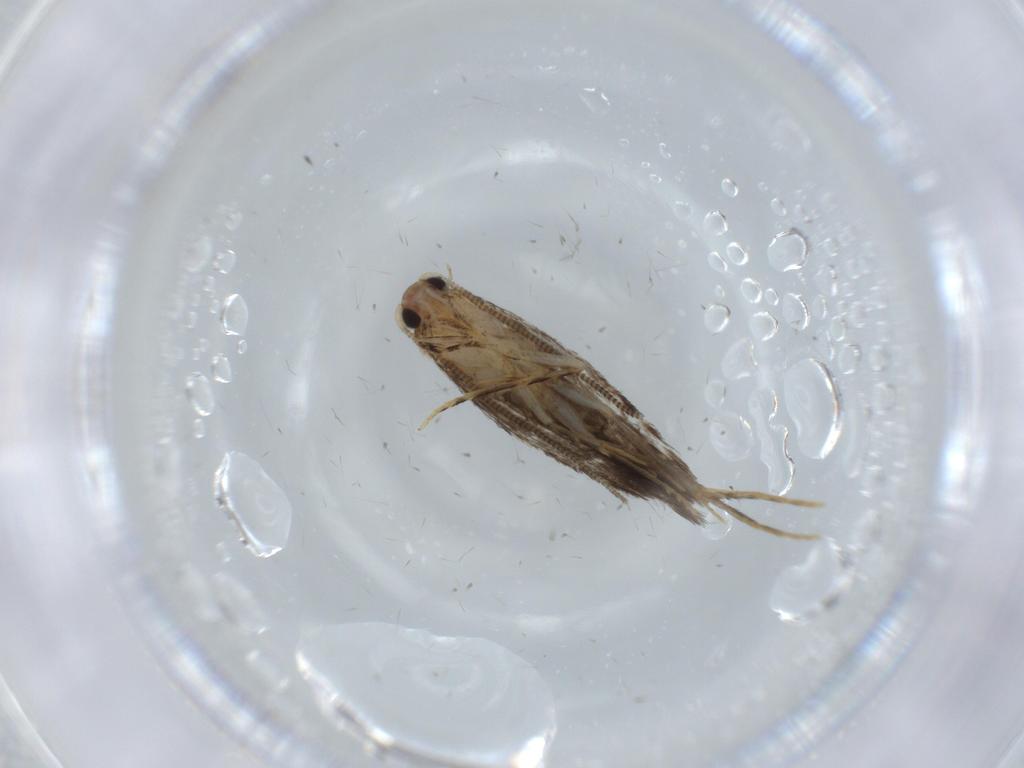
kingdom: Animalia
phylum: Arthropoda
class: Insecta
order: Lepidoptera
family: Tineidae
